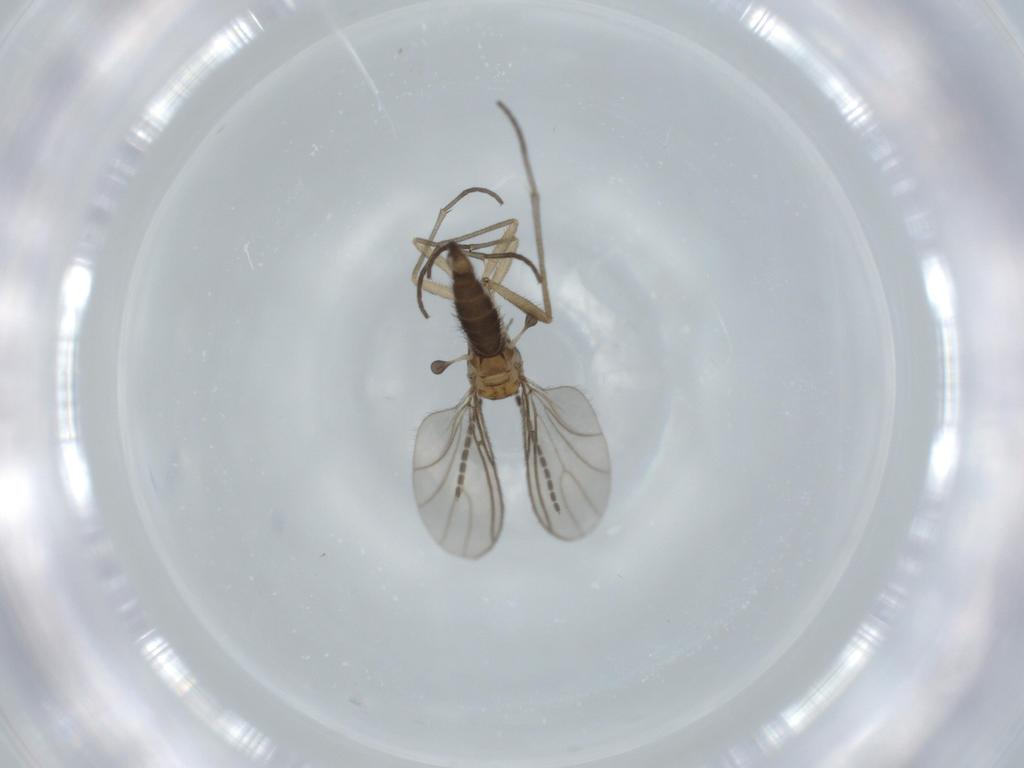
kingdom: Animalia
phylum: Arthropoda
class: Insecta
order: Diptera
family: Sciaridae
